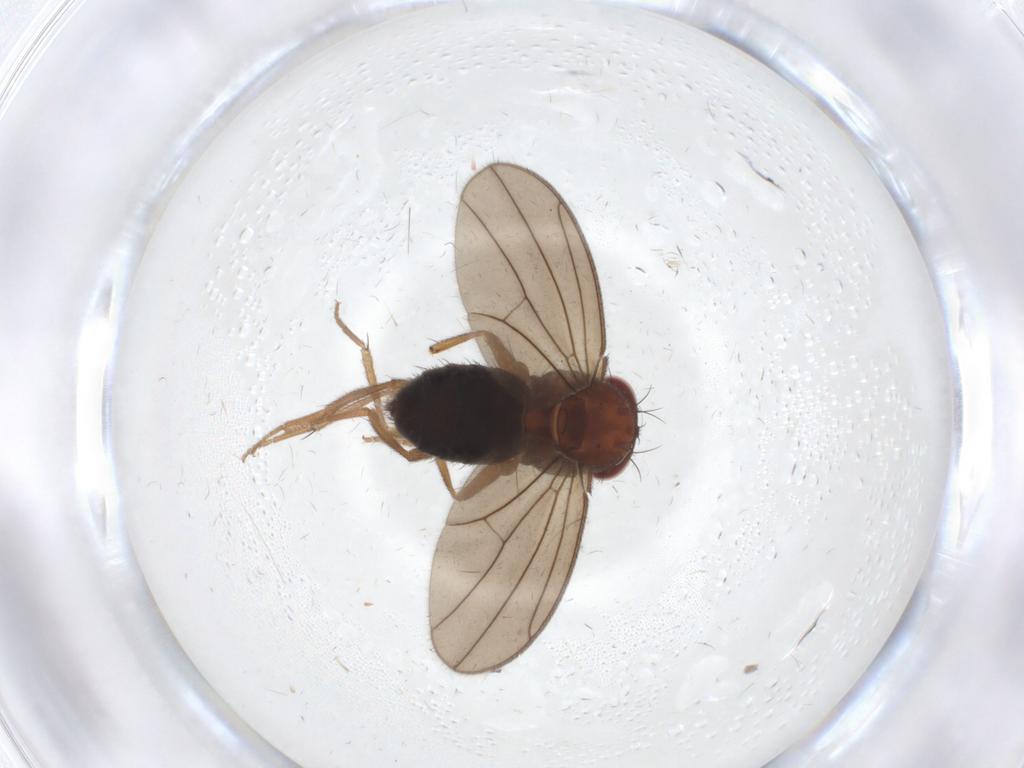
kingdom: Animalia
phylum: Arthropoda
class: Insecta
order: Diptera
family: Drosophilidae
